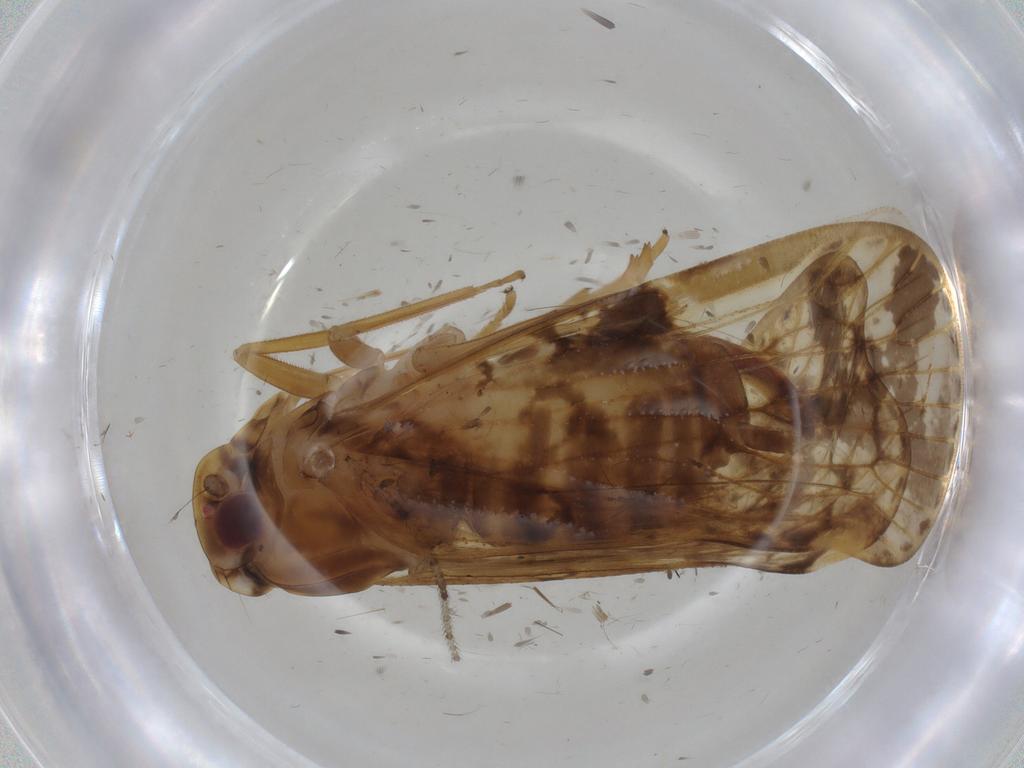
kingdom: Animalia
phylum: Arthropoda
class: Insecta
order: Hemiptera
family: Cixiidae
